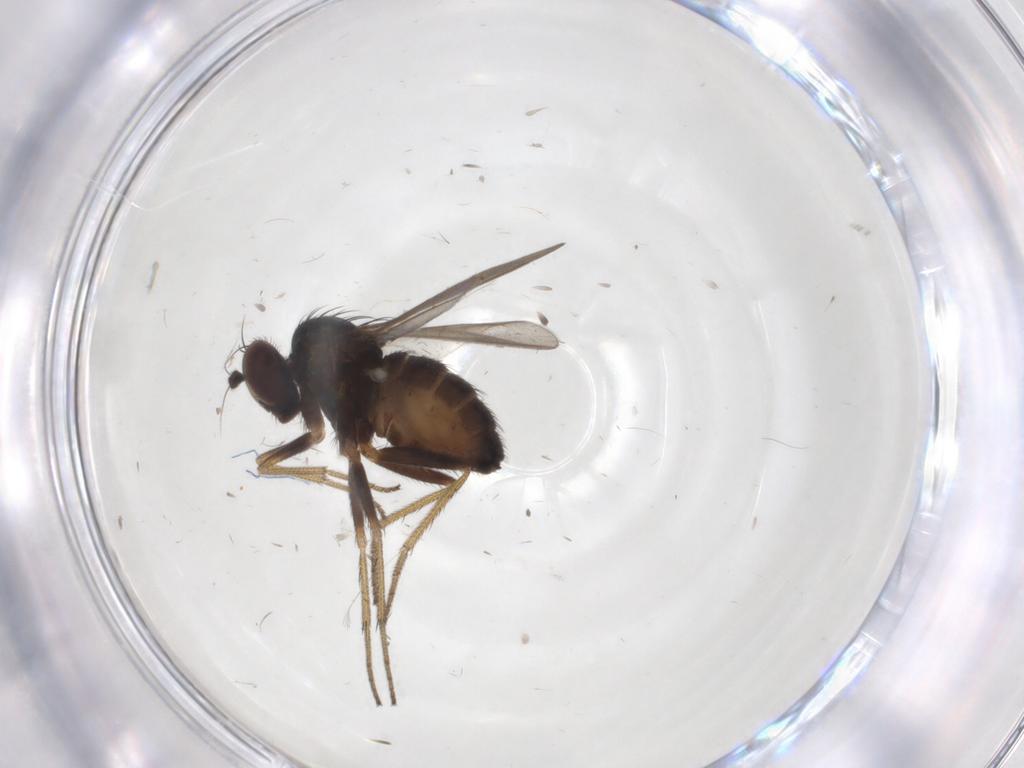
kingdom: Animalia
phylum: Arthropoda
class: Insecta
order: Diptera
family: Dolichopodidae
